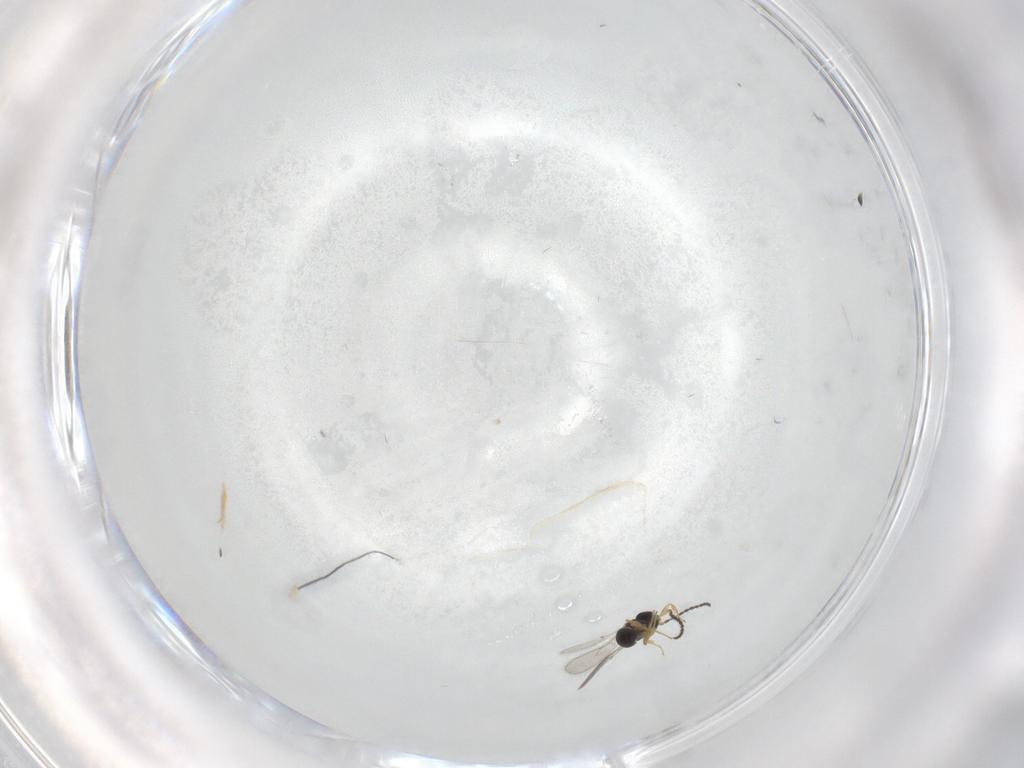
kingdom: Animalia
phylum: Arthropoda
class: Insecta
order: Hymenoptera
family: Scelionidae
